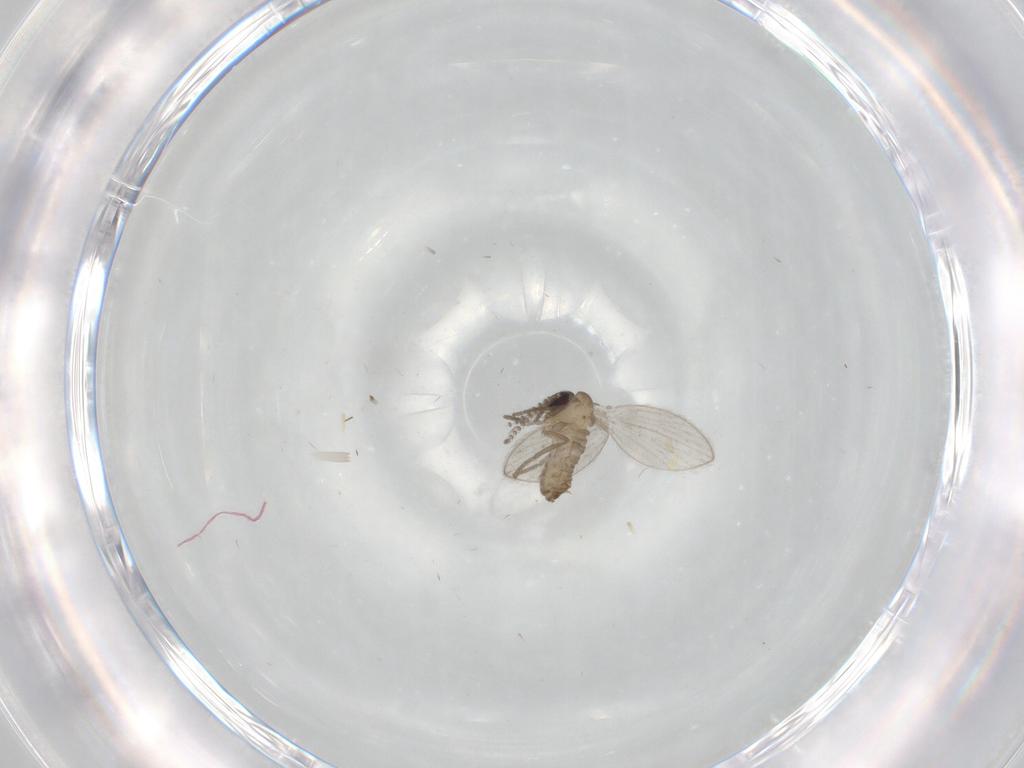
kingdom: Animalia
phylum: Arthropoda
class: Insecta
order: Diptera
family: Psychodidae
